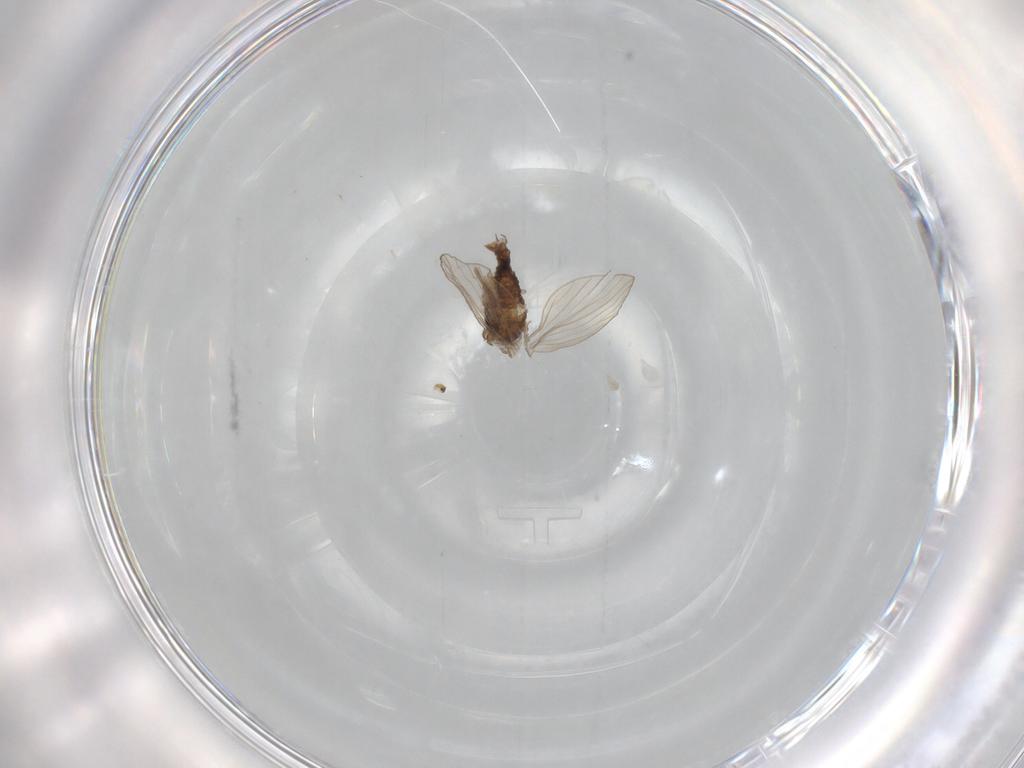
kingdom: Animalia
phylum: Arthropoda
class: Insecta
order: Diptera
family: Psychodidae
